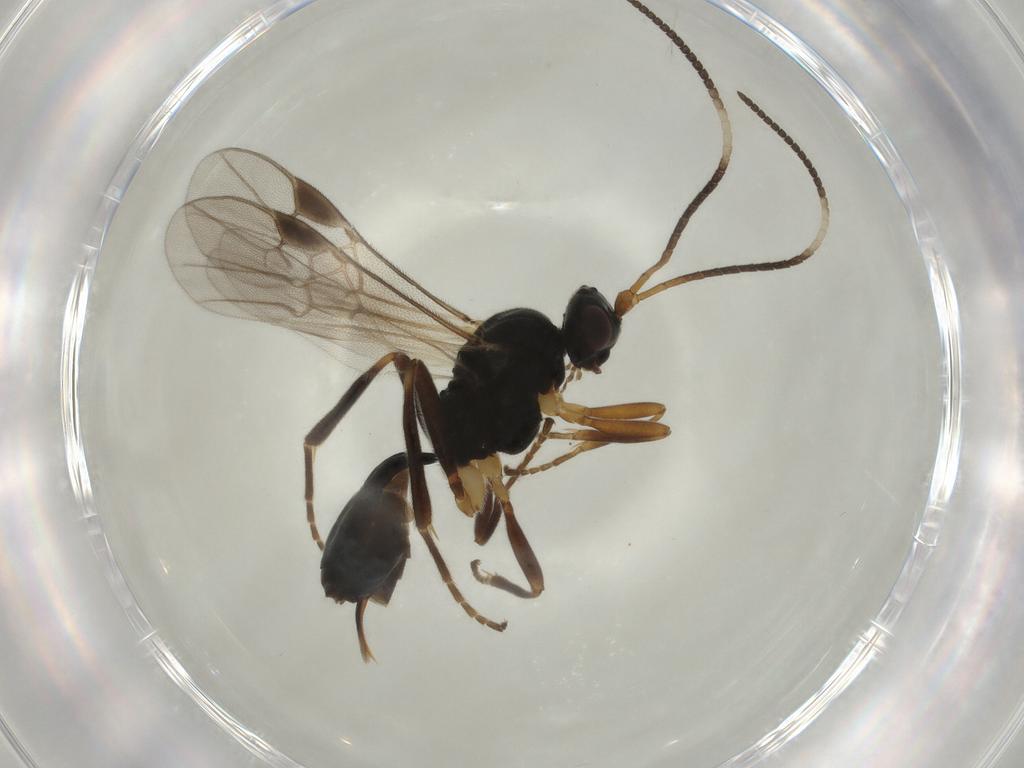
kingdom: Animalia
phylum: Arthropoda
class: Insecta
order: Hymenoptera
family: Braconidae
